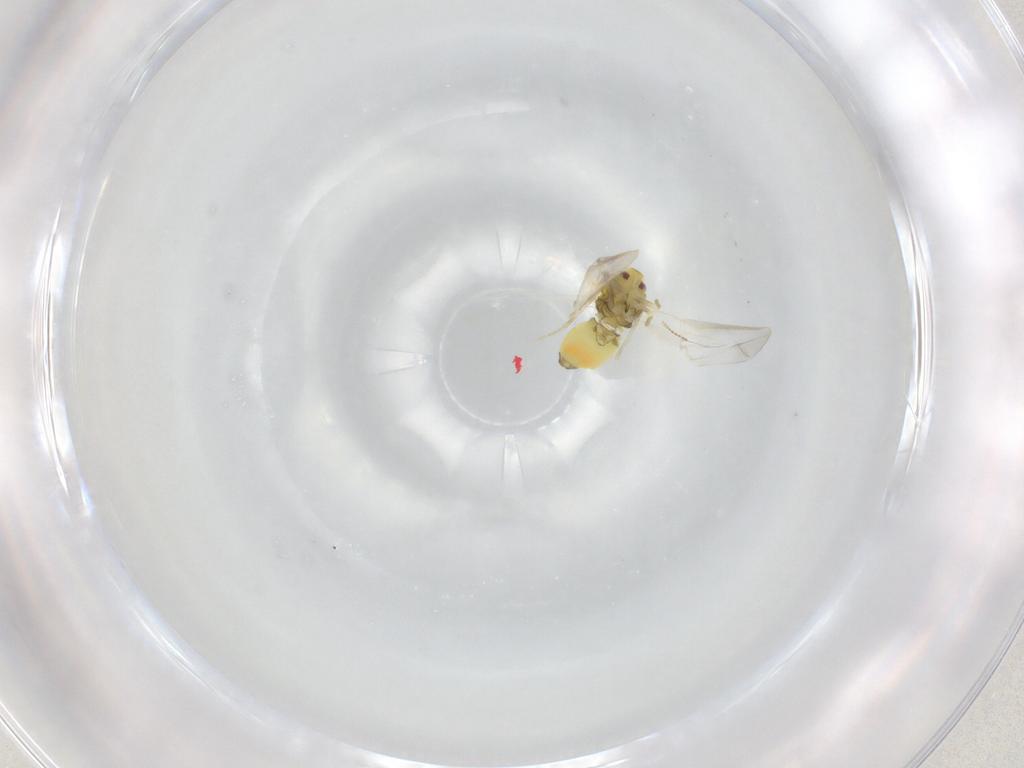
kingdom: Animalia
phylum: Arthropoda
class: Insecta
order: Hemiptera
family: Aleyrodidae
